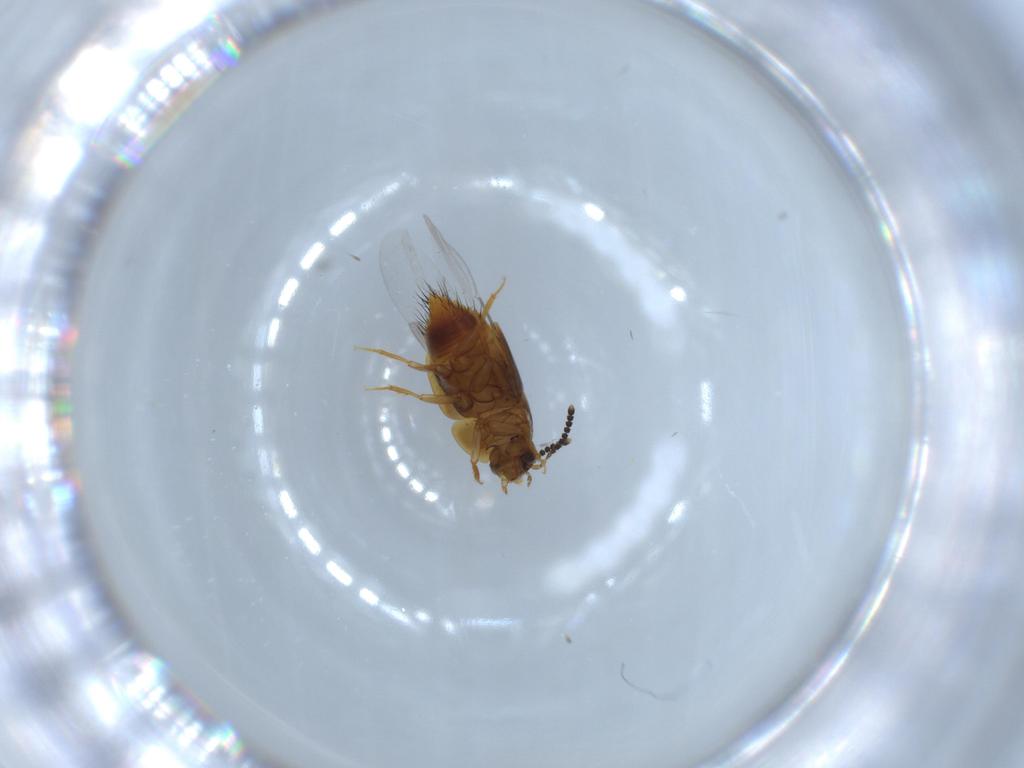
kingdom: Animalia
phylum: Arthropoda
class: Insecta
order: Coleoptera
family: Staphylinidae
